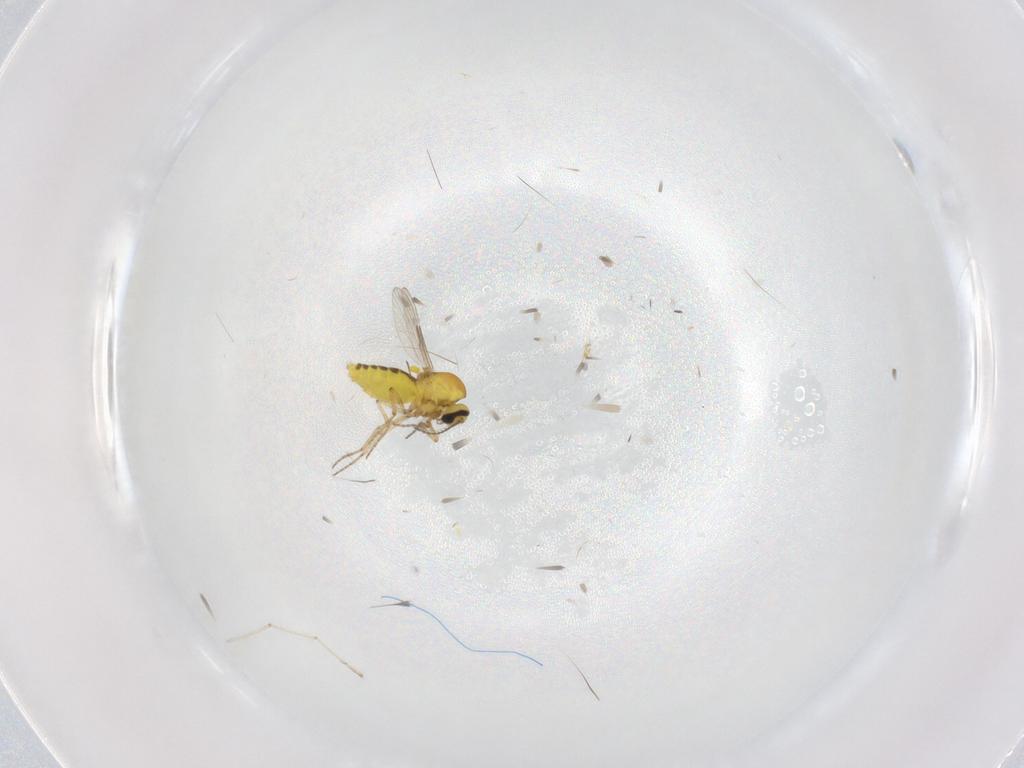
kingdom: Animalia
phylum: Arthropoda
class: Insecta
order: Diptera
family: Ceratopogonidae
